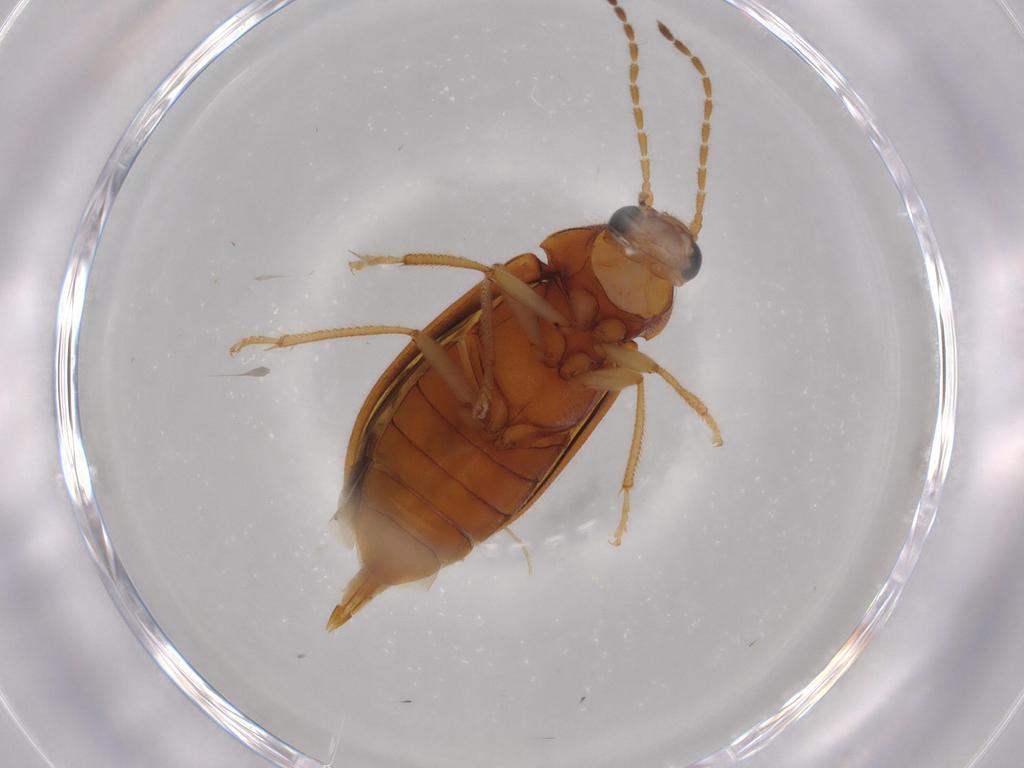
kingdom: Animalia
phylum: Arthropoda
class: Insecta
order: Coleoptera
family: Ptilodactylidae
